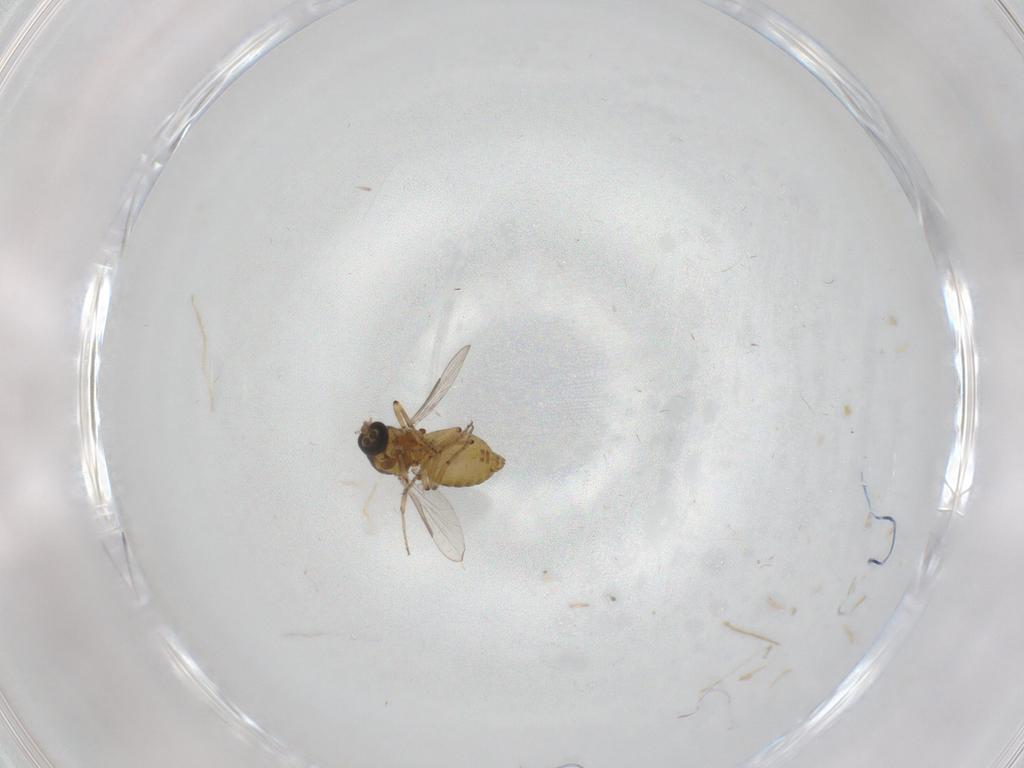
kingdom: Animalia
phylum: Arthropoda
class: Insecta
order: Diptera
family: Ceratopogonidae
